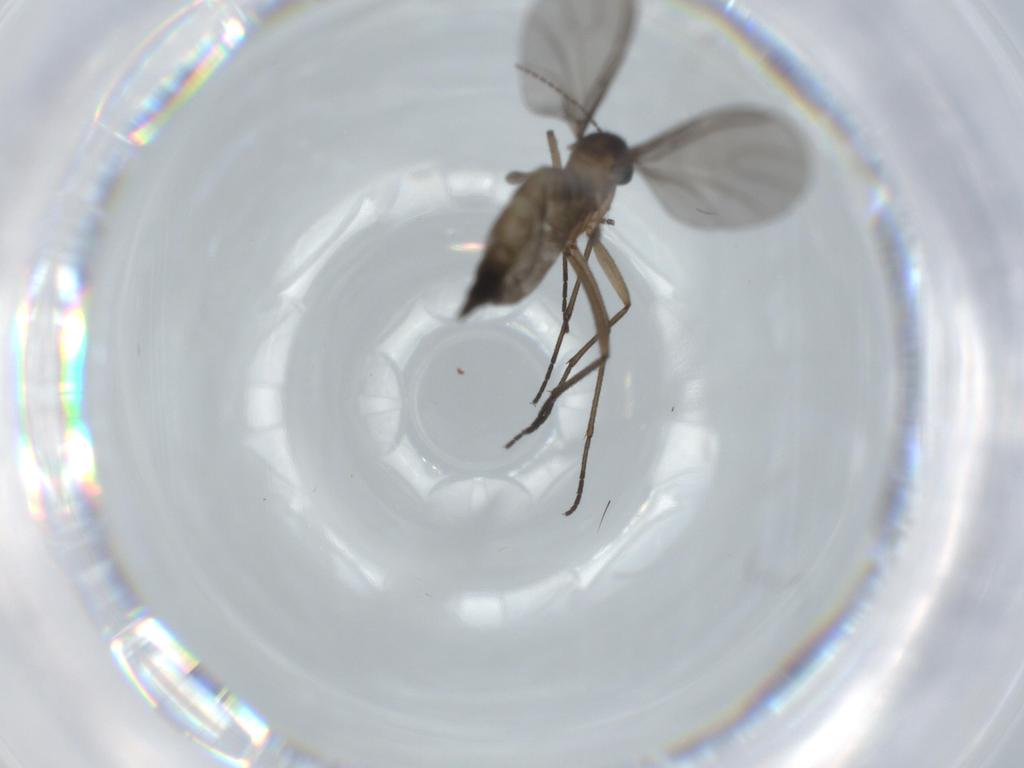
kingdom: Animalia
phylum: Arthropoda
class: Insecta
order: Diptera
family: Sciaridae
